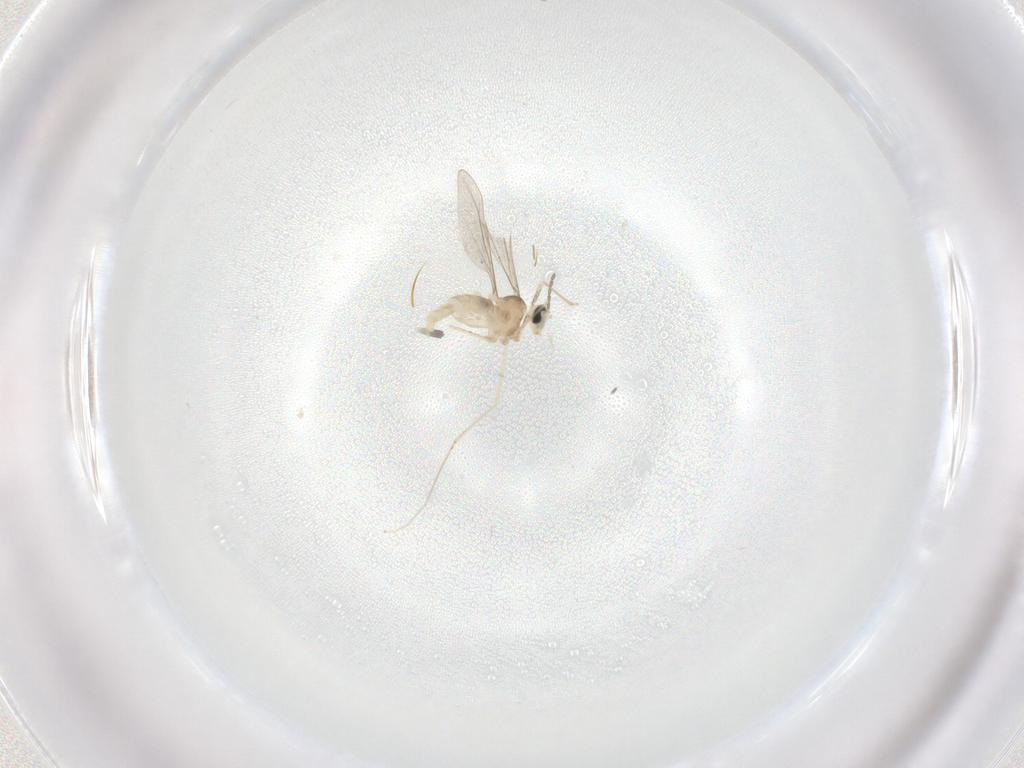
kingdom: Animalia
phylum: Arthropoda
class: Insecta
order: Diptera
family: Cecidomyiidae
